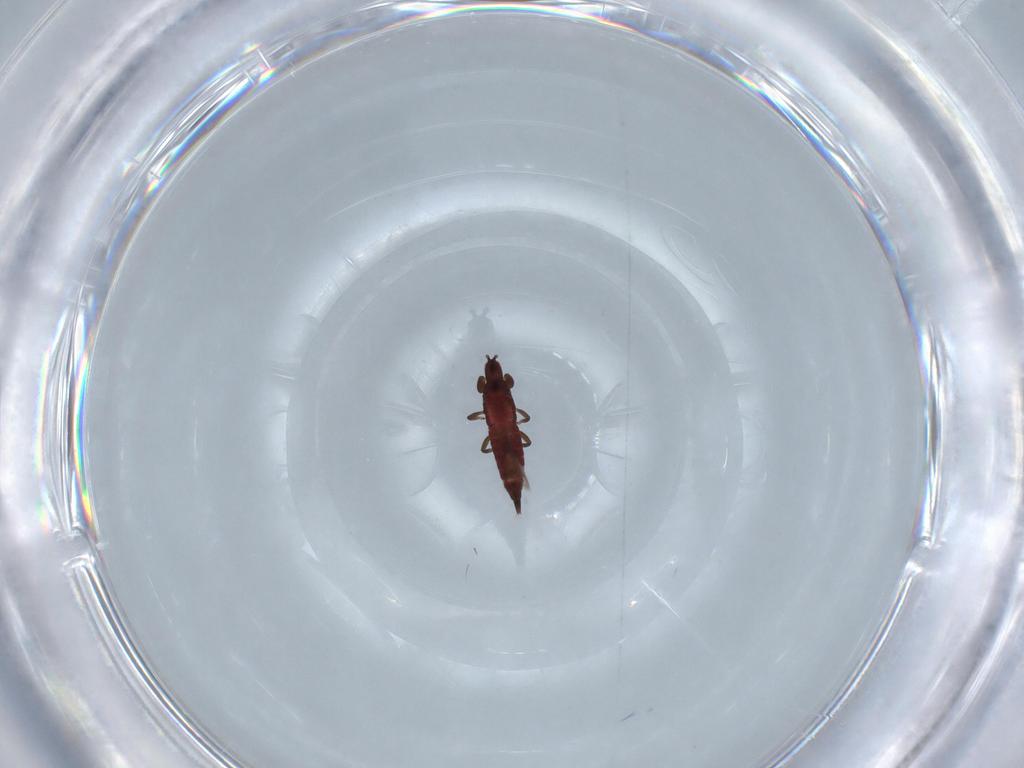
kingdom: Animalia
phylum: Arthropoda
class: Insecta
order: Thysanoptera
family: Phlaeothripidae
